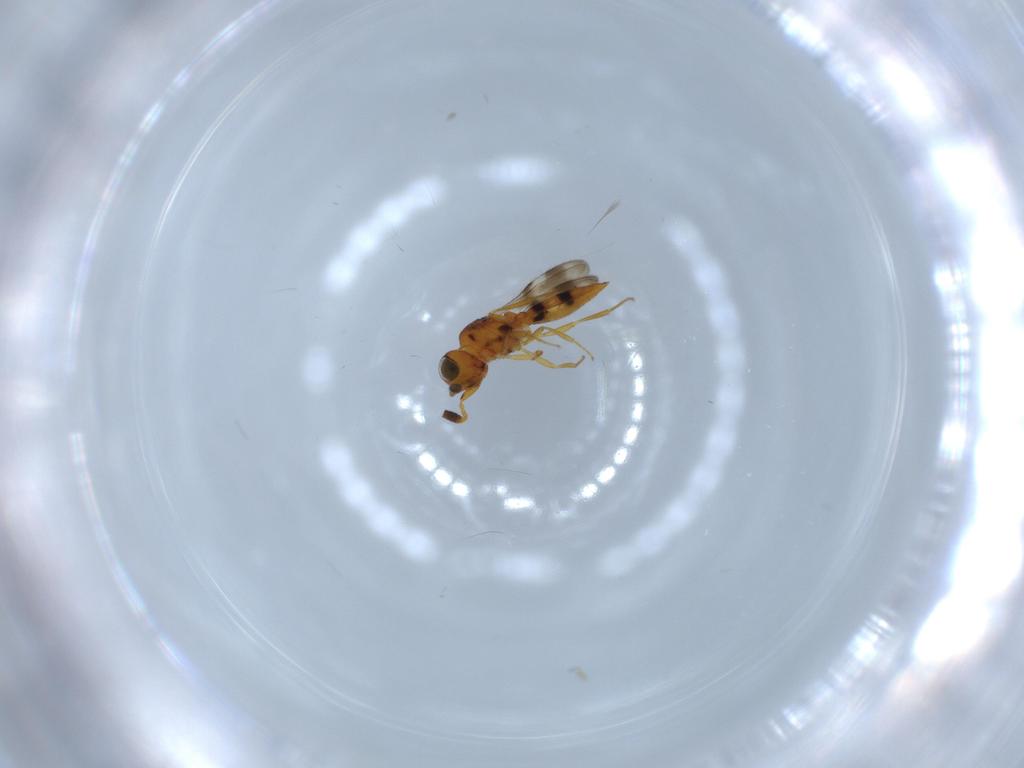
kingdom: Animalia
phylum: Arthropoda
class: Insecta
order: Hymenoptera
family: Scelionidae
